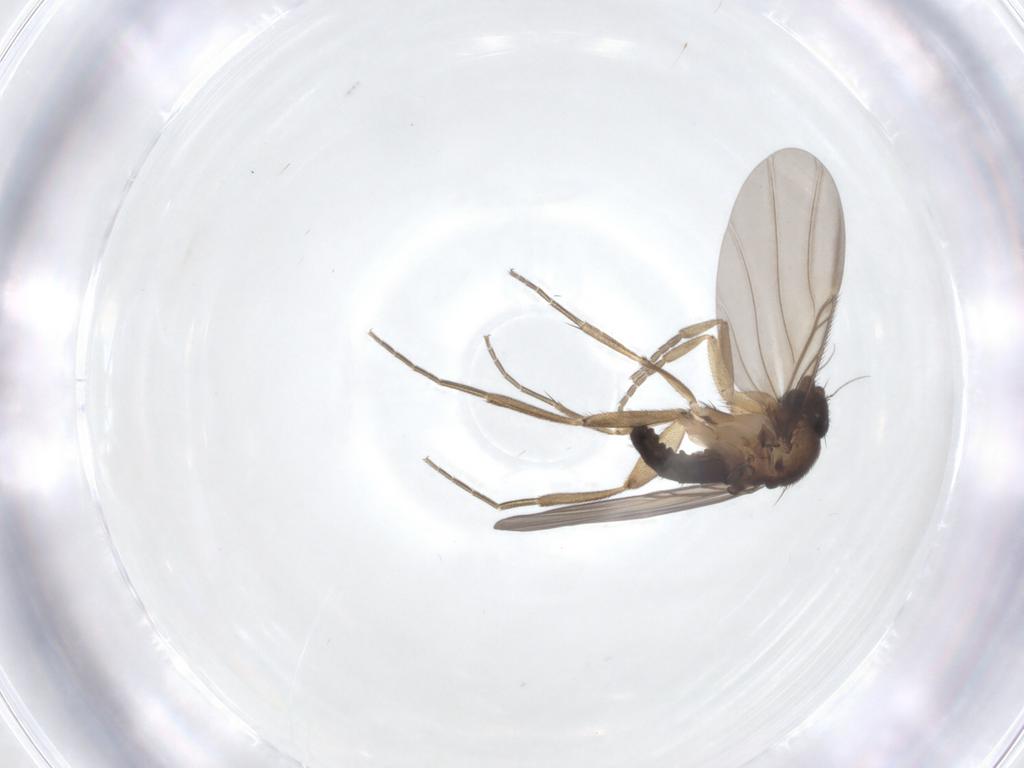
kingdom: Animalia
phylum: Arthropoda
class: Insecta
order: Diptera
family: Phoridae
